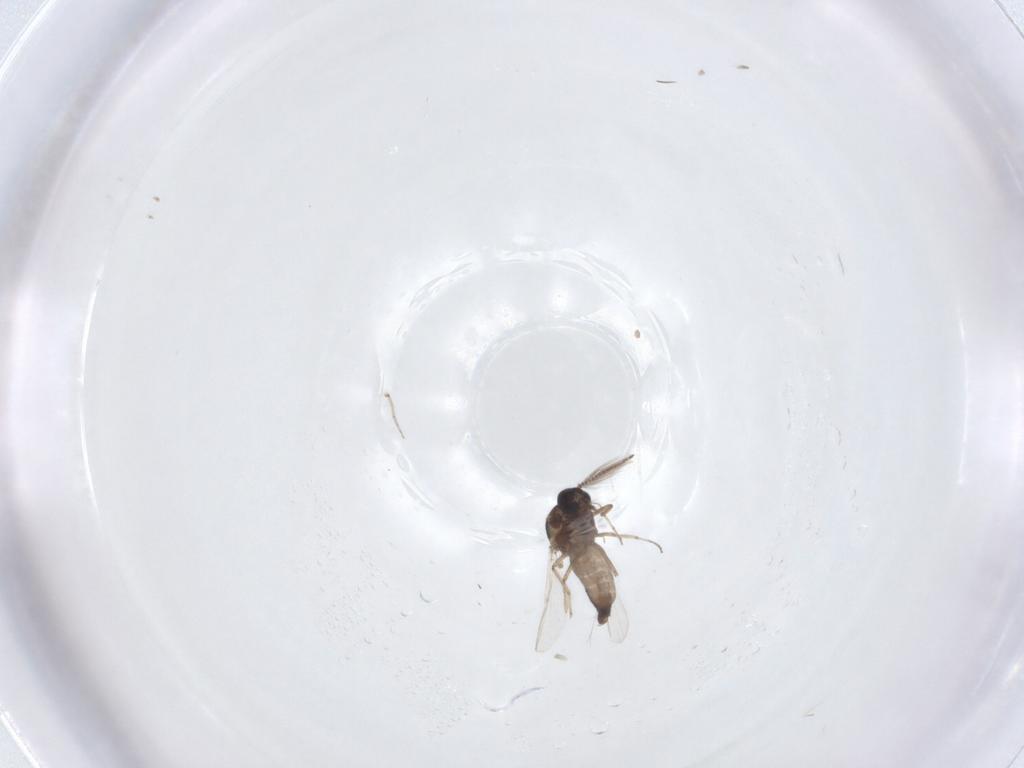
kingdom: Animalia
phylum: Arthropoda
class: Insecta
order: Diptera
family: Ceratopogonidae
